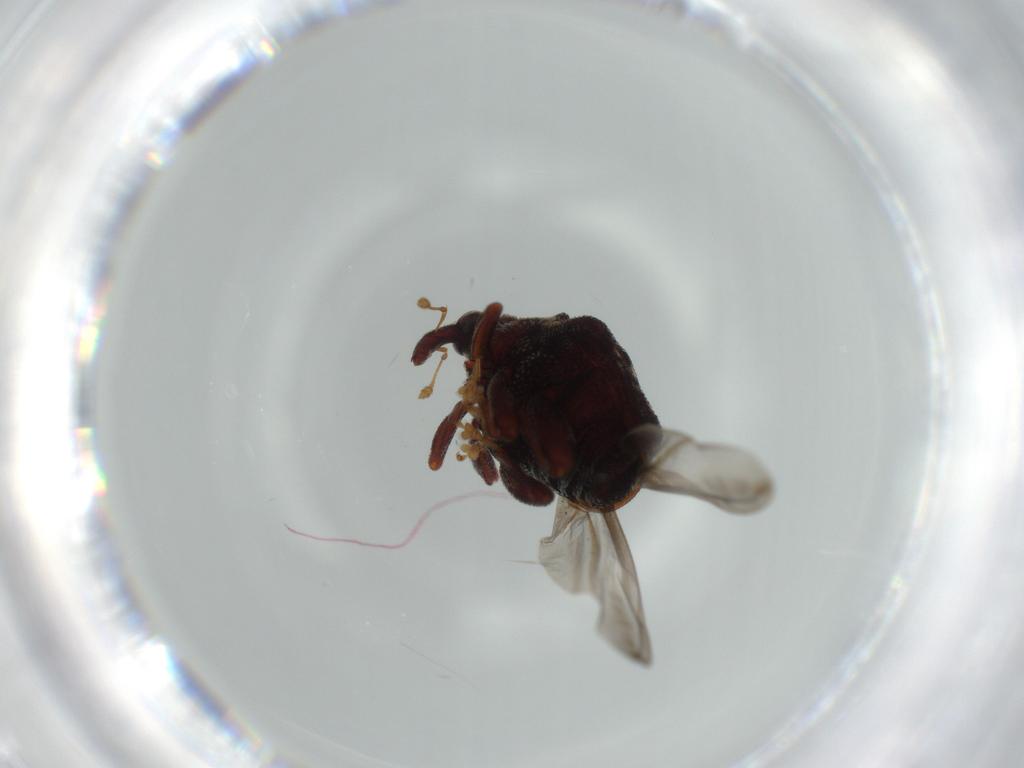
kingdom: Animalia
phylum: Arthropoda
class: Insecta
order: Coleoptera
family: Curculionidae
